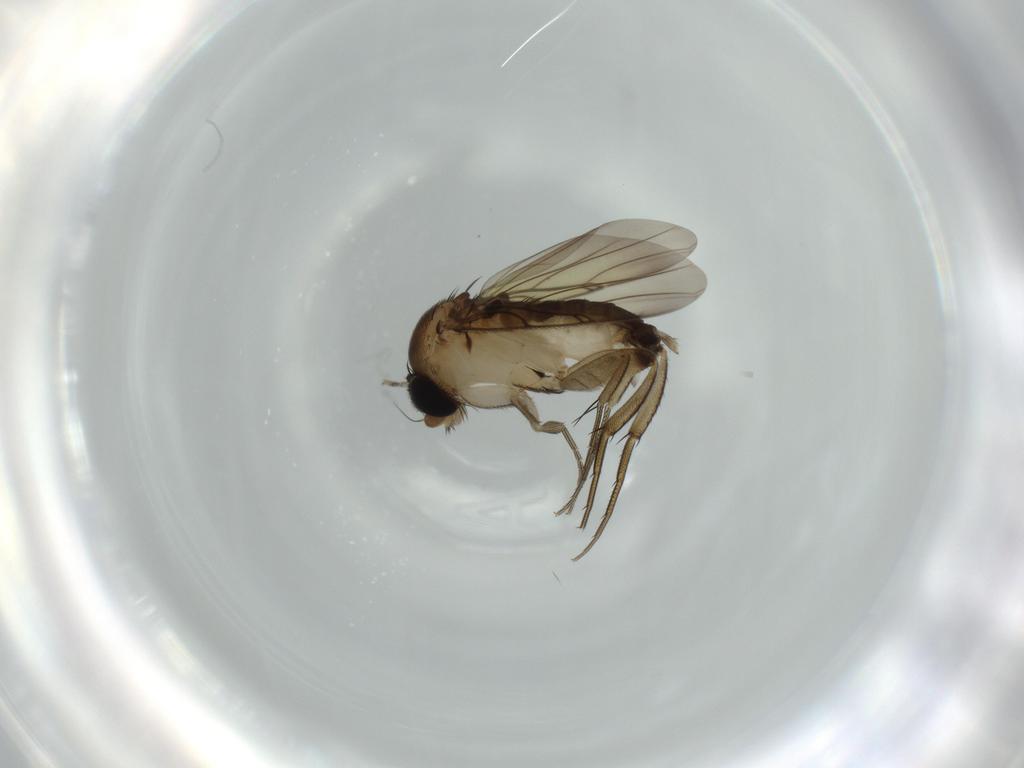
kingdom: Animalia
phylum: Arthropoda
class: Insecta
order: Diptera
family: Phoridae
